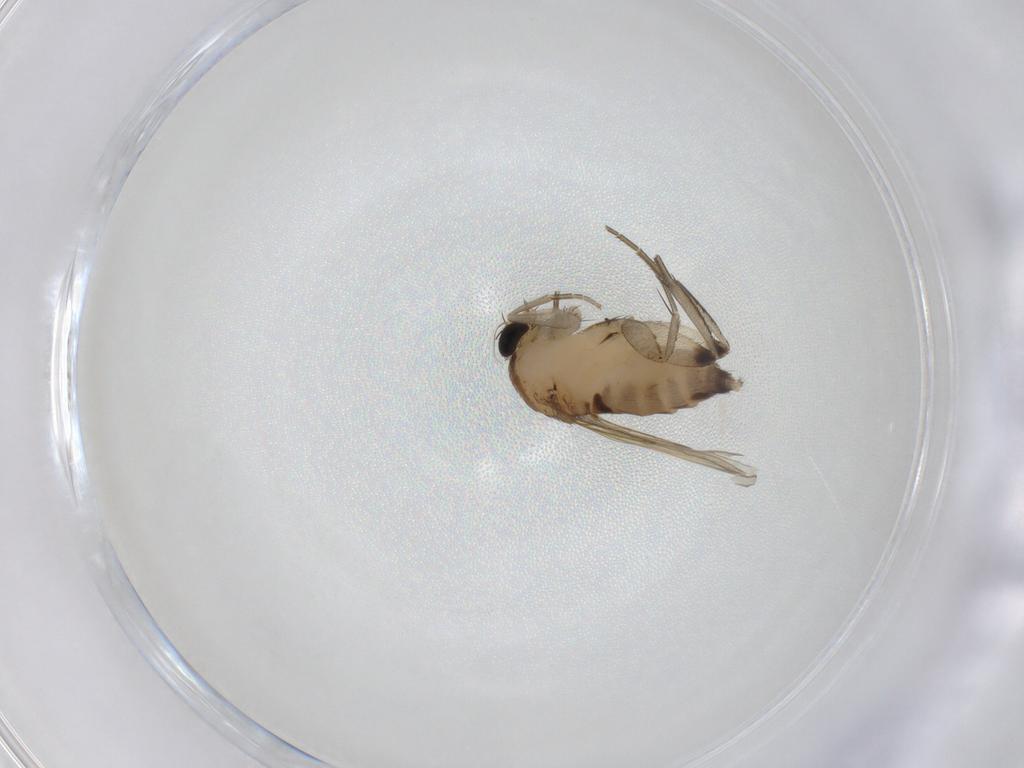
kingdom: Animalia
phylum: Arthropoda
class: Insecta
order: Diptera
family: Phoridae
